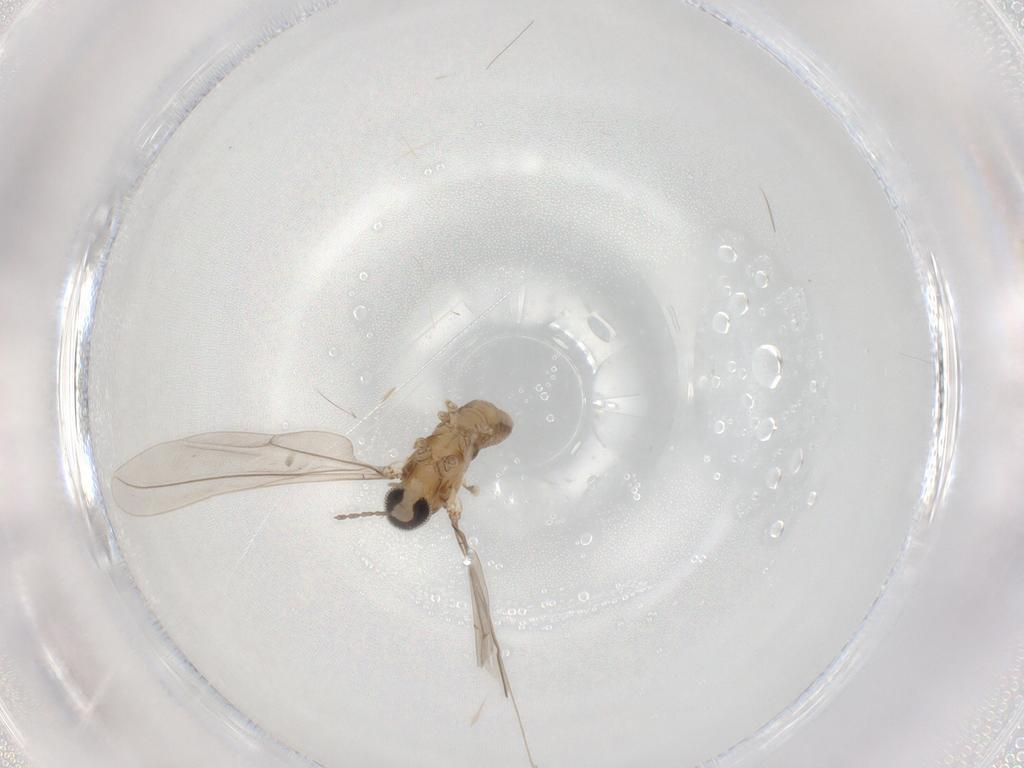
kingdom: Animalia
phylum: Arthropoda
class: Insecta
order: Diptera
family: Cecidomyiidae
